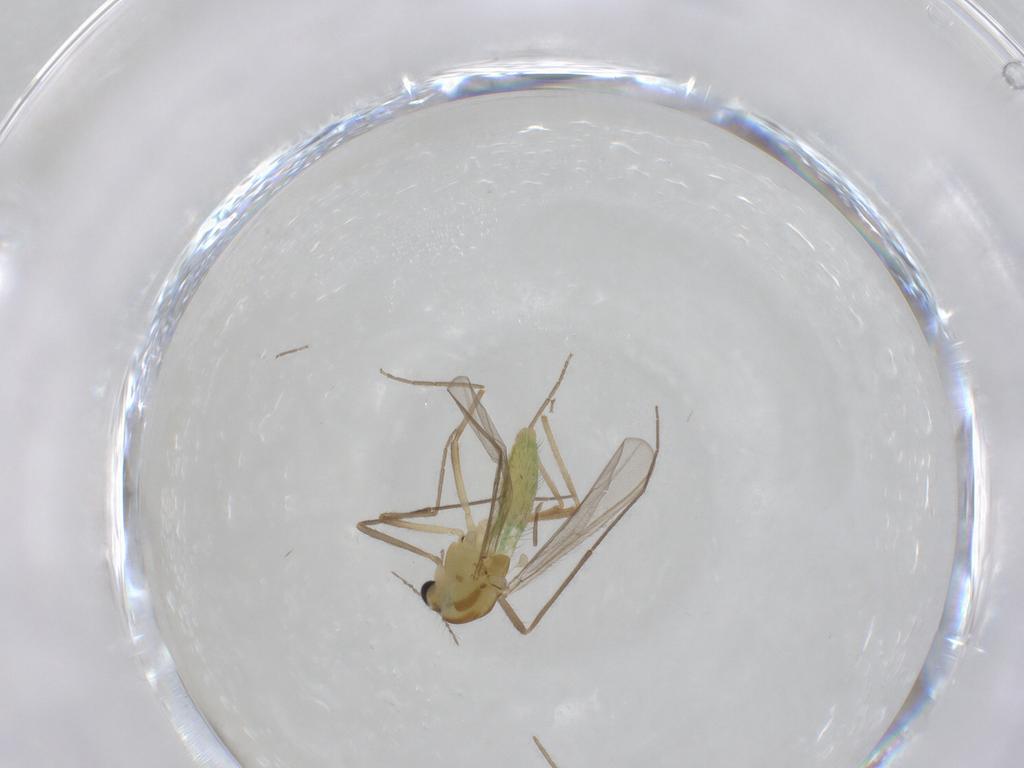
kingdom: Animalia
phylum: Arthropoda
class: Insecta
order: Diptera
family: Chironomidae
